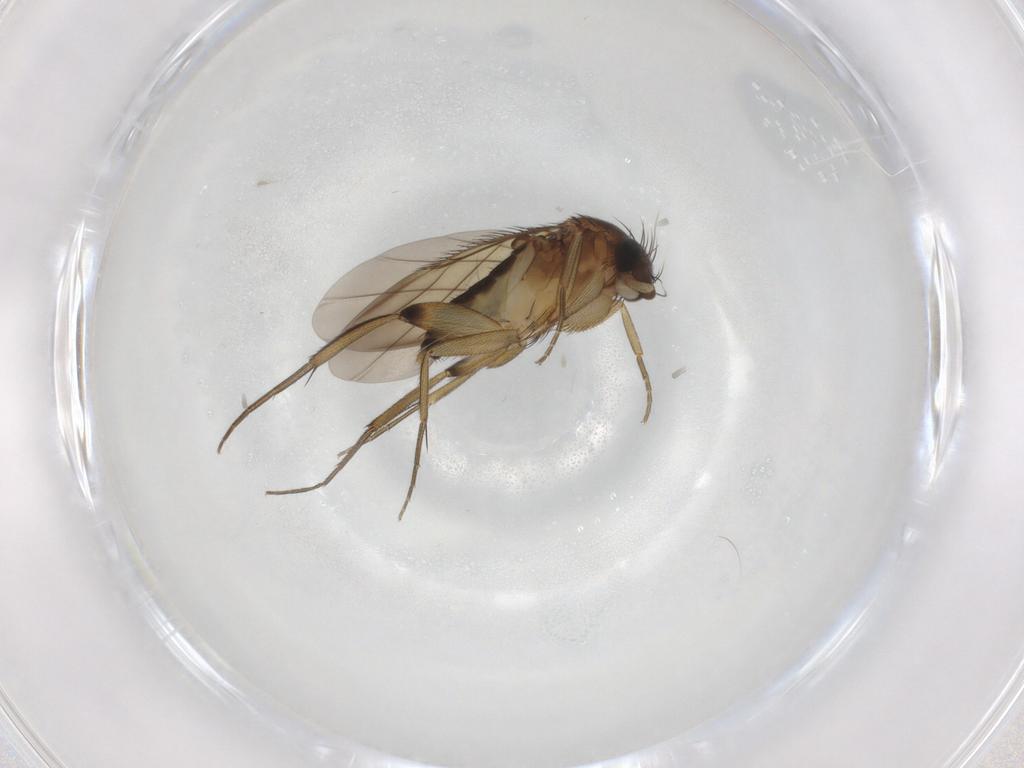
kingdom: Animalia
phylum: Arthropoda
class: Insecta
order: Diptera
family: Phoridae
